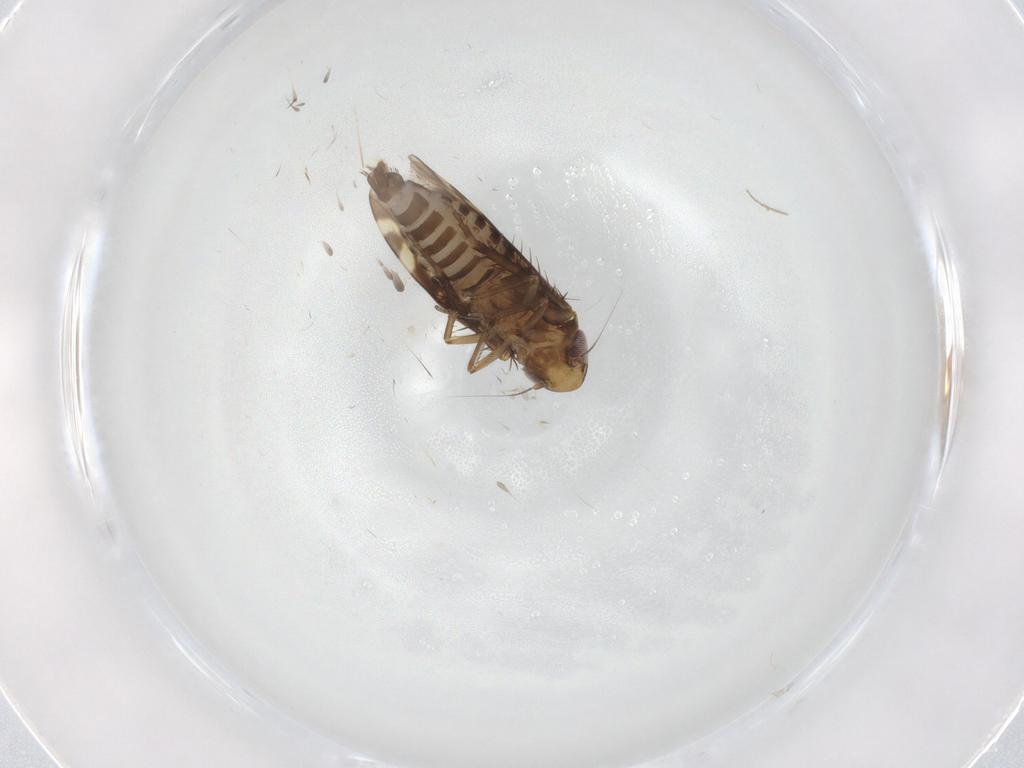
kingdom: Animalia
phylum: Arthropoda
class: Insecta
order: Hemiptera
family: Cicadellidae
